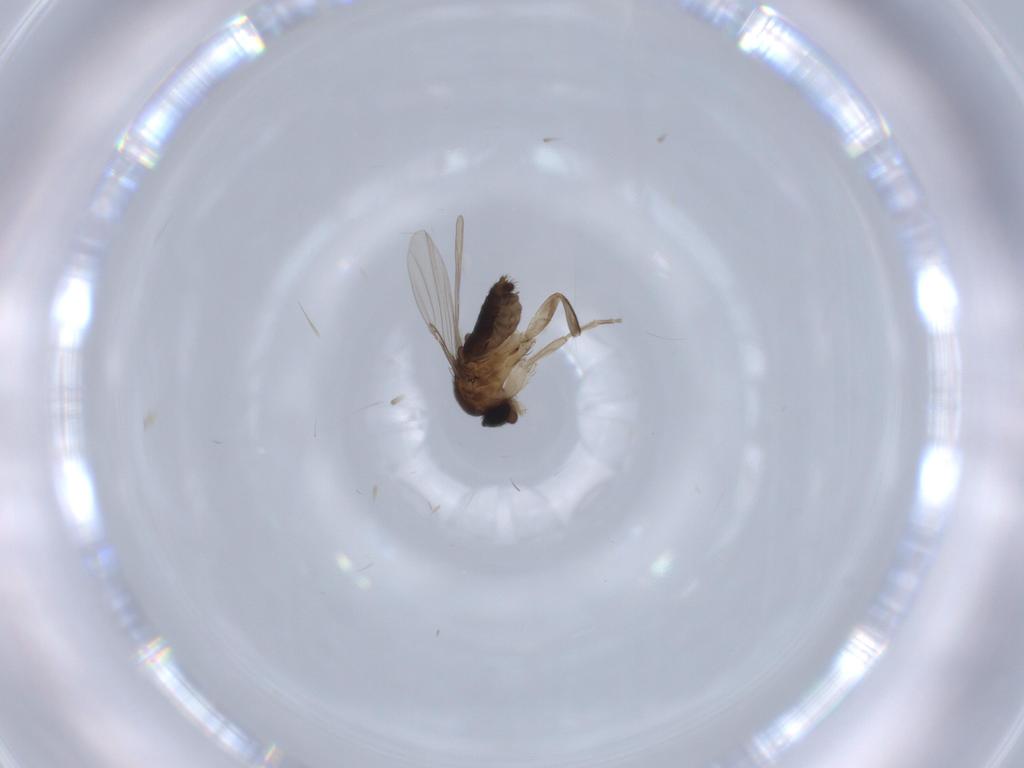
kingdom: Animalia
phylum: Arthropoda
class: Insecta
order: Diptera
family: Phoridae
